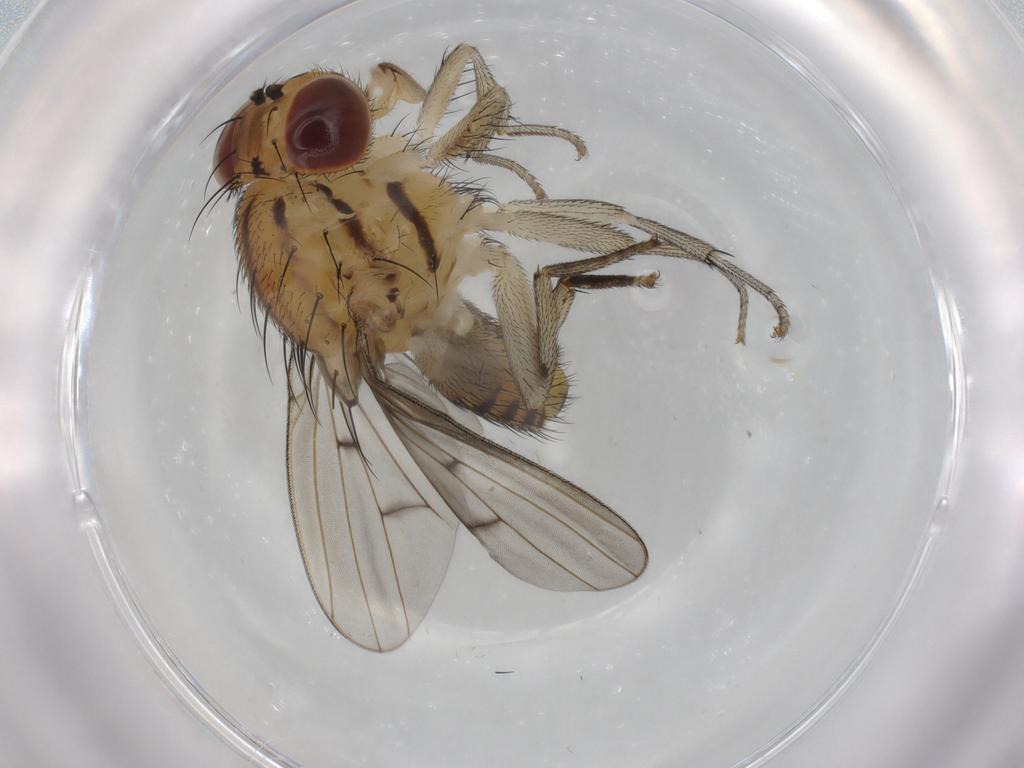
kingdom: Animalia
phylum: Arthropoda
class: Insecta
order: Diptera
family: Lauxaniidae
